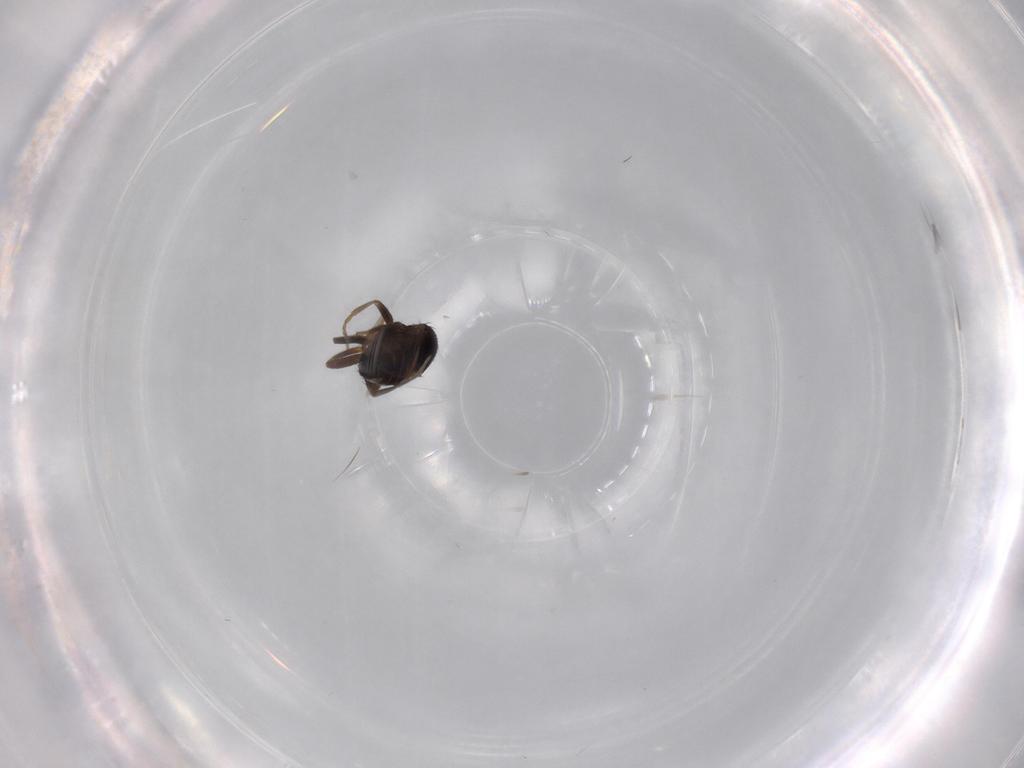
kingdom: Animalia
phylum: Arthropoda
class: Insecta
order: Diptera
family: Sphaeroceridae
